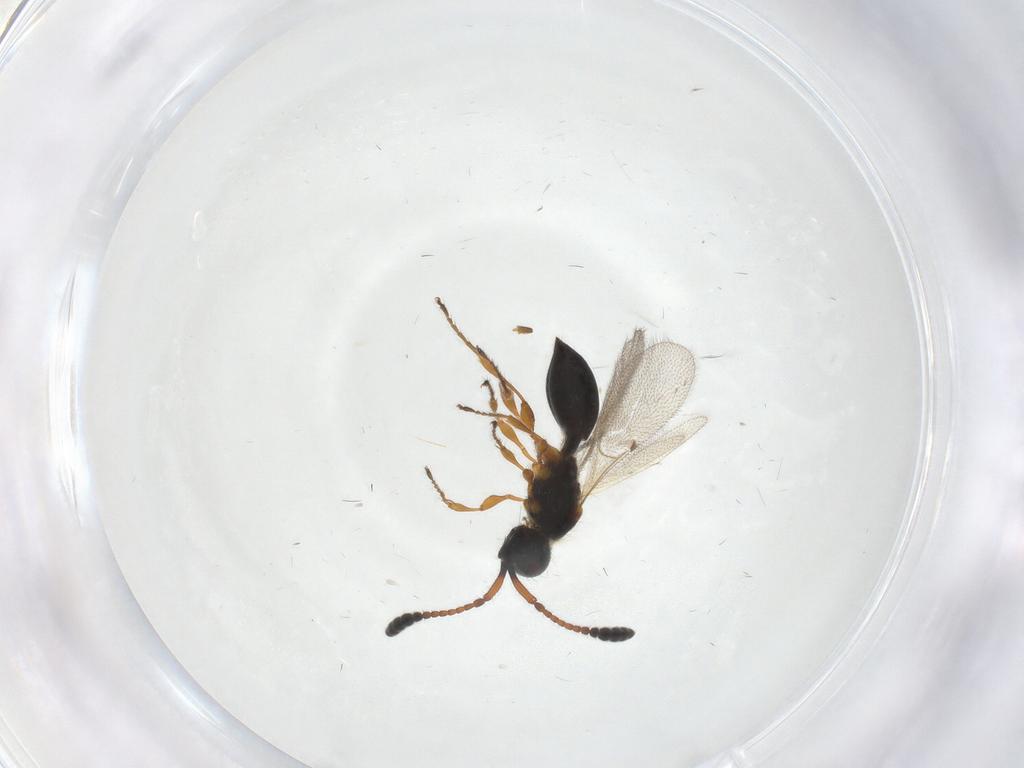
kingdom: Animalia
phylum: Arthropoda
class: Insecta
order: Hymenoptera
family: Diapriidae
